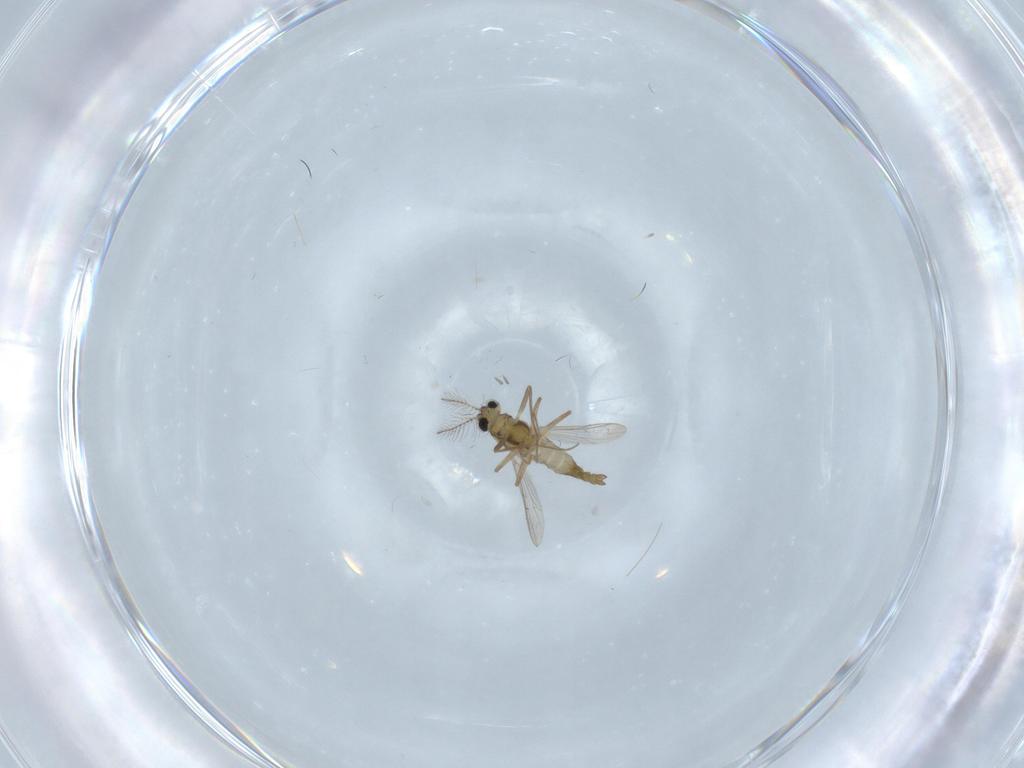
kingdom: Animalia
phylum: Arthropoda
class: Insecta
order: Diptera
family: Chironomidae
